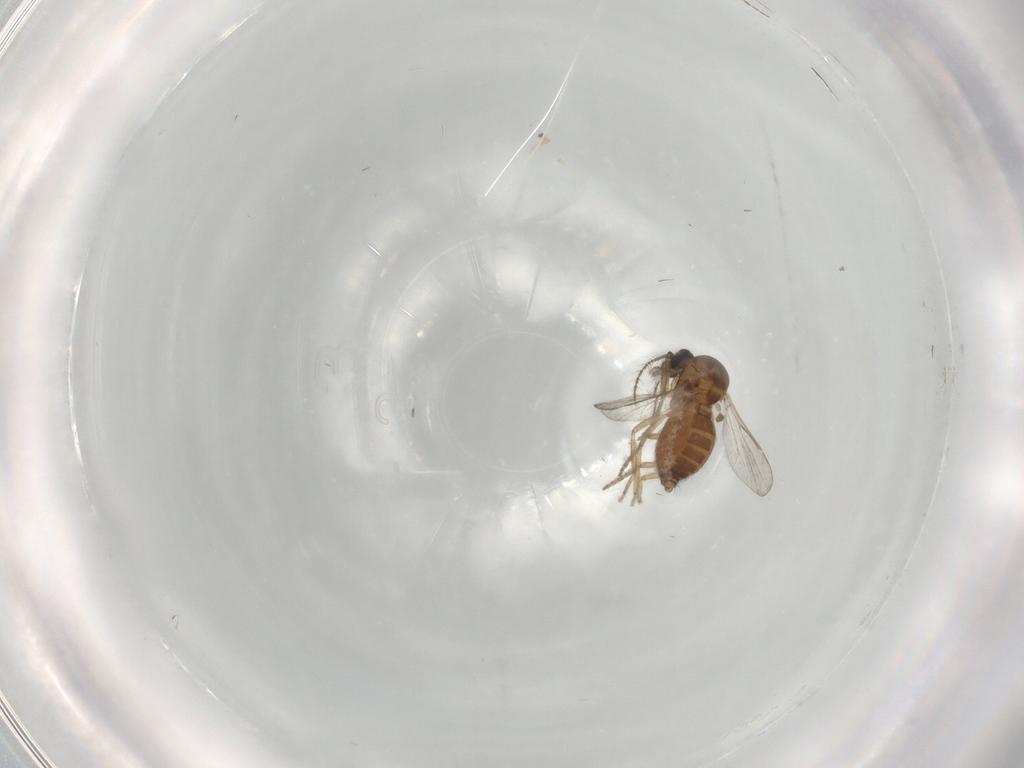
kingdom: Animalia
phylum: Arthropoda
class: Insecta
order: Diptera
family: Dolichopodidae
